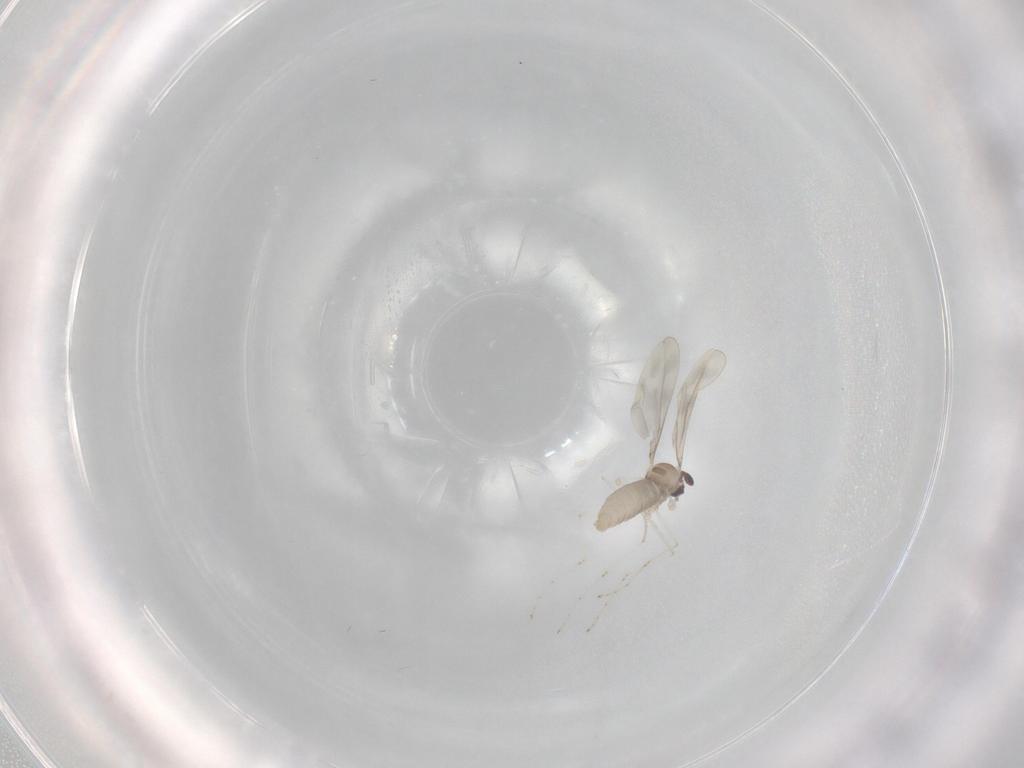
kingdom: Animalia
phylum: Arthropoda
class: Insecta
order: Diptera
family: Cecidomyiidae
